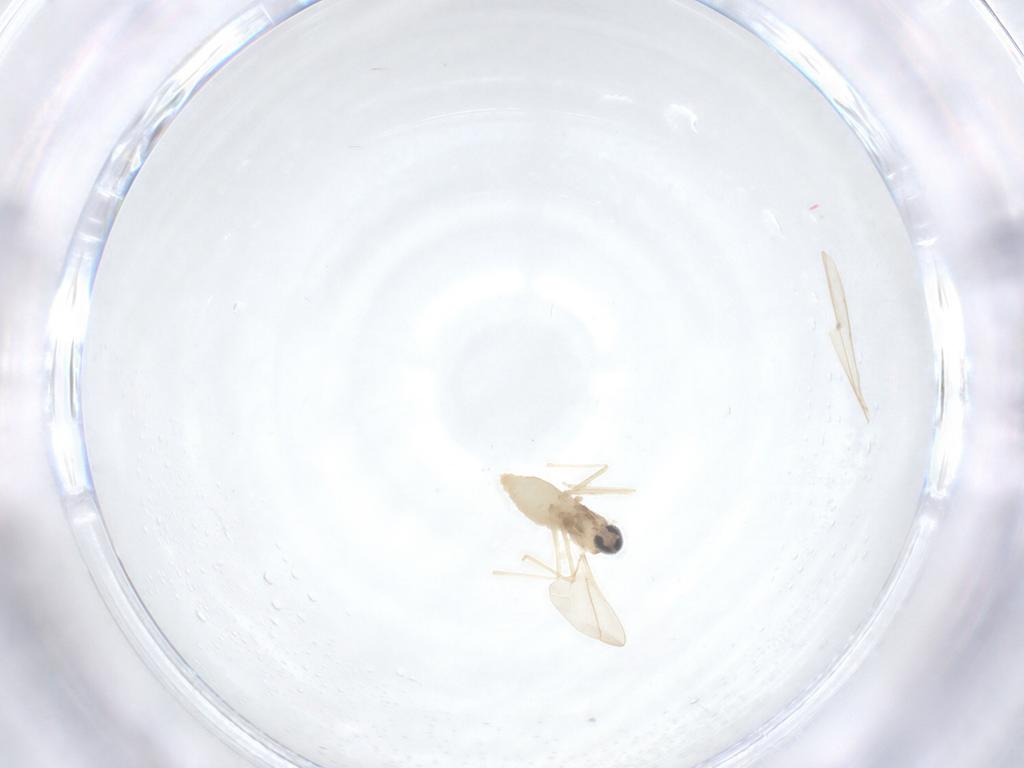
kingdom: Animalia
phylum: Arthropoda
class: Insecta
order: Diptera
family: Cecidomyiidae
